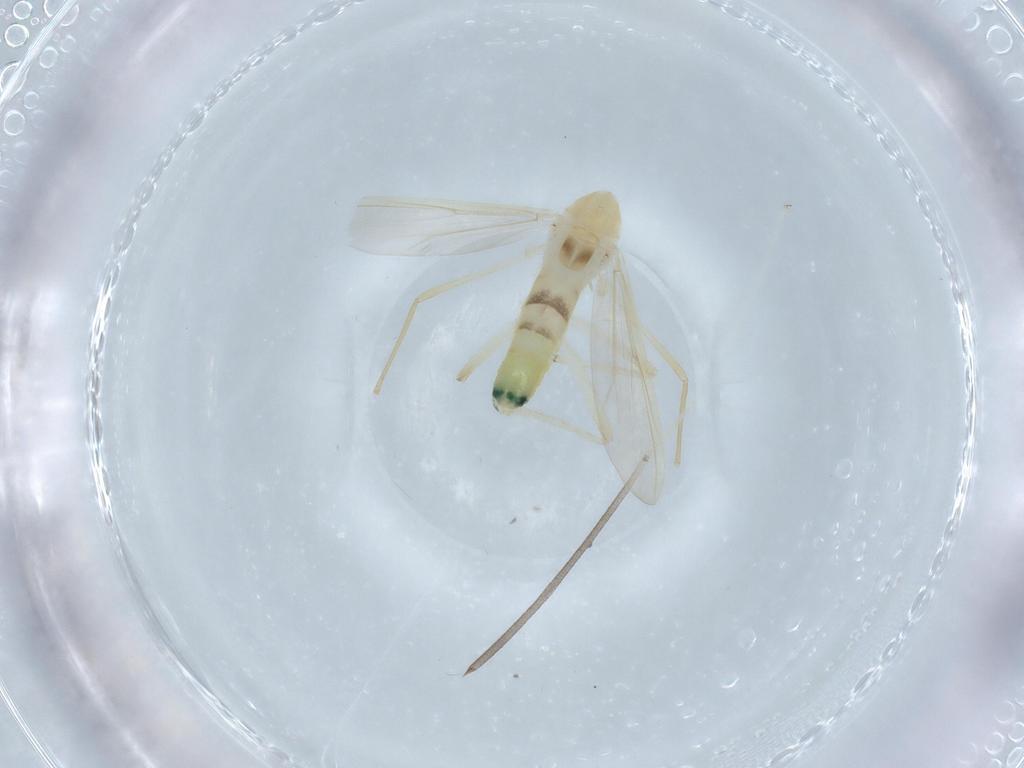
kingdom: Animalia
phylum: Arthropoda
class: Insecta
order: Diptera
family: Chironomidae
